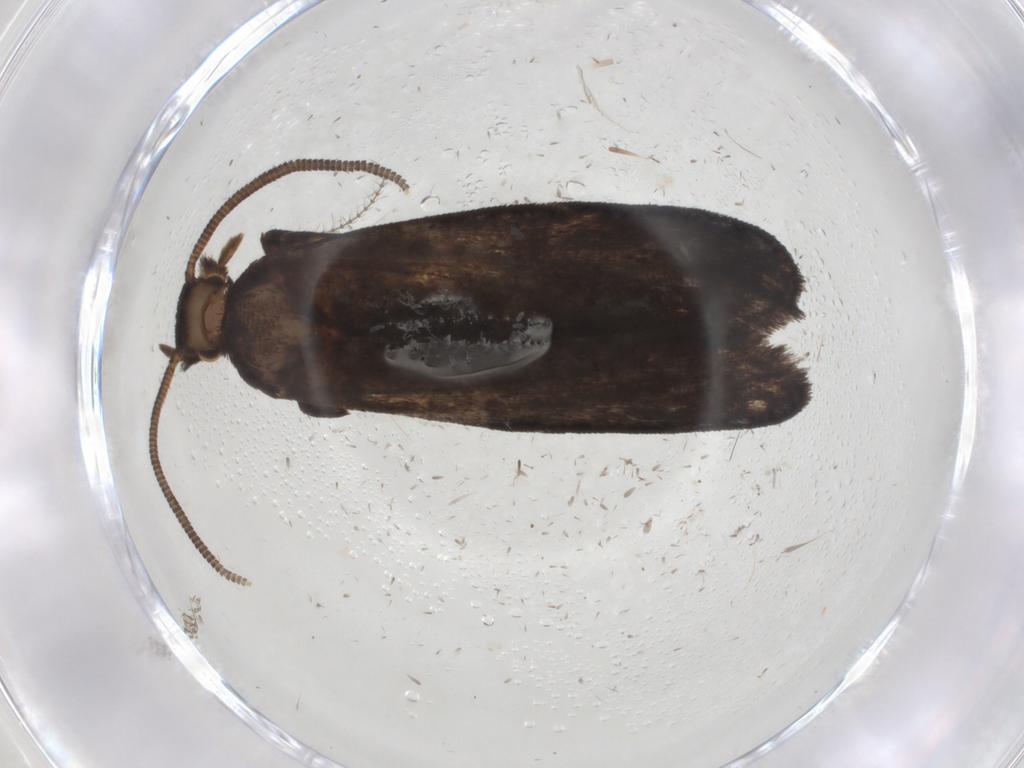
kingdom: Animalia
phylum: Arthropoda
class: Insecta
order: Lepidoptera
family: Dryadaulidae
